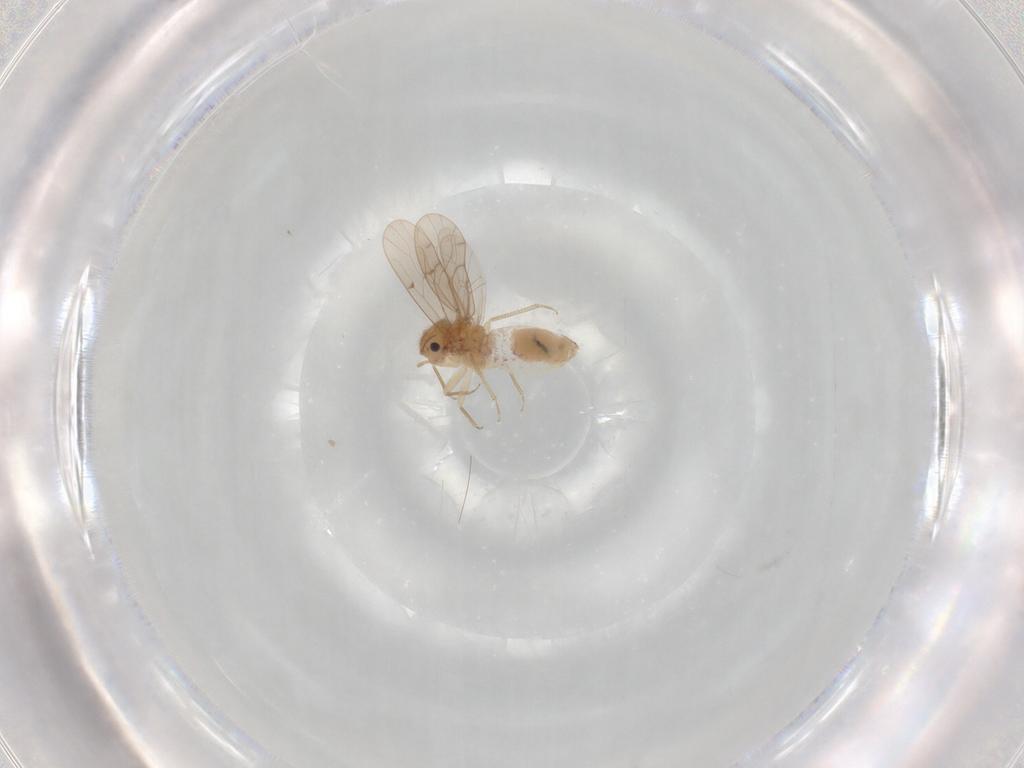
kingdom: Animalia
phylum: Arthropoda
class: Insecta
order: Psocodea
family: Ectopsocidae
